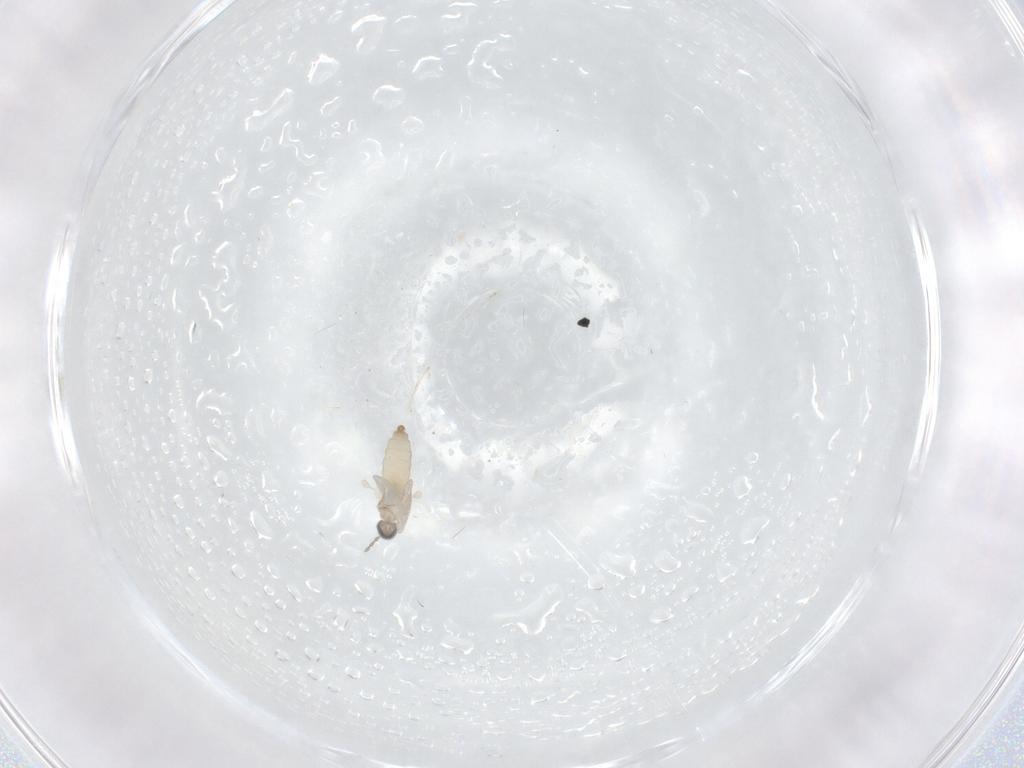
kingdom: Animalia
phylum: Arthropoda
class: Insecta
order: Diptera
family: Cecidomyiidae
